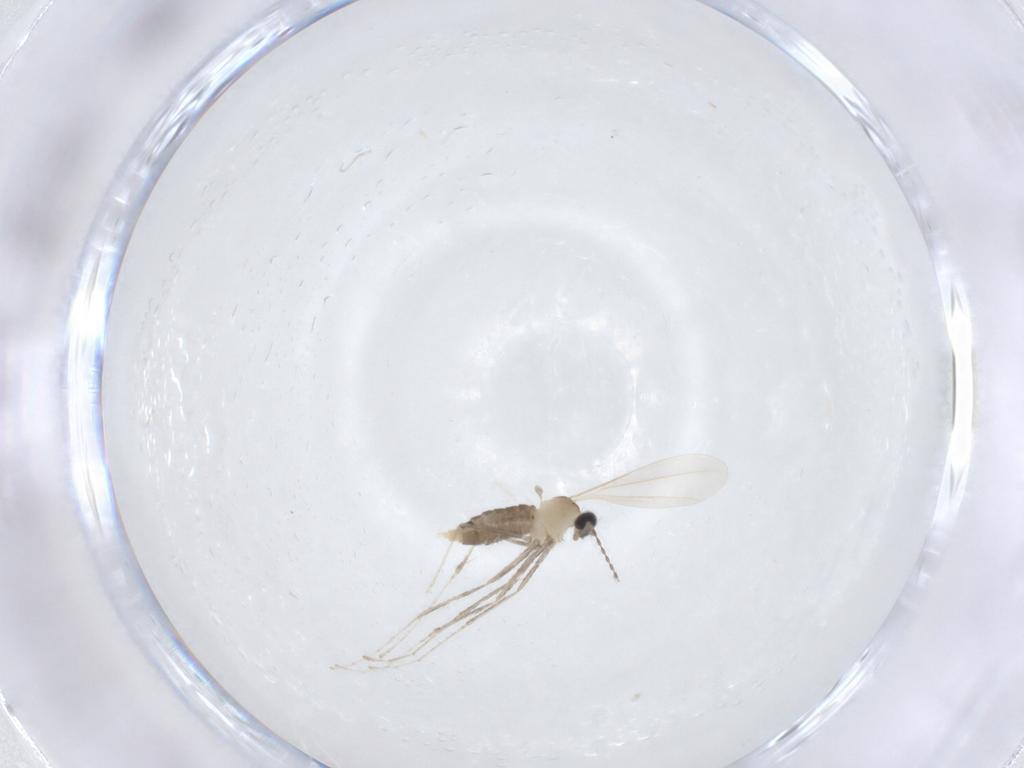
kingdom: Animalia
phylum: Arthropoda
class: Insecta
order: Diptera
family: Cecidomyiidae
